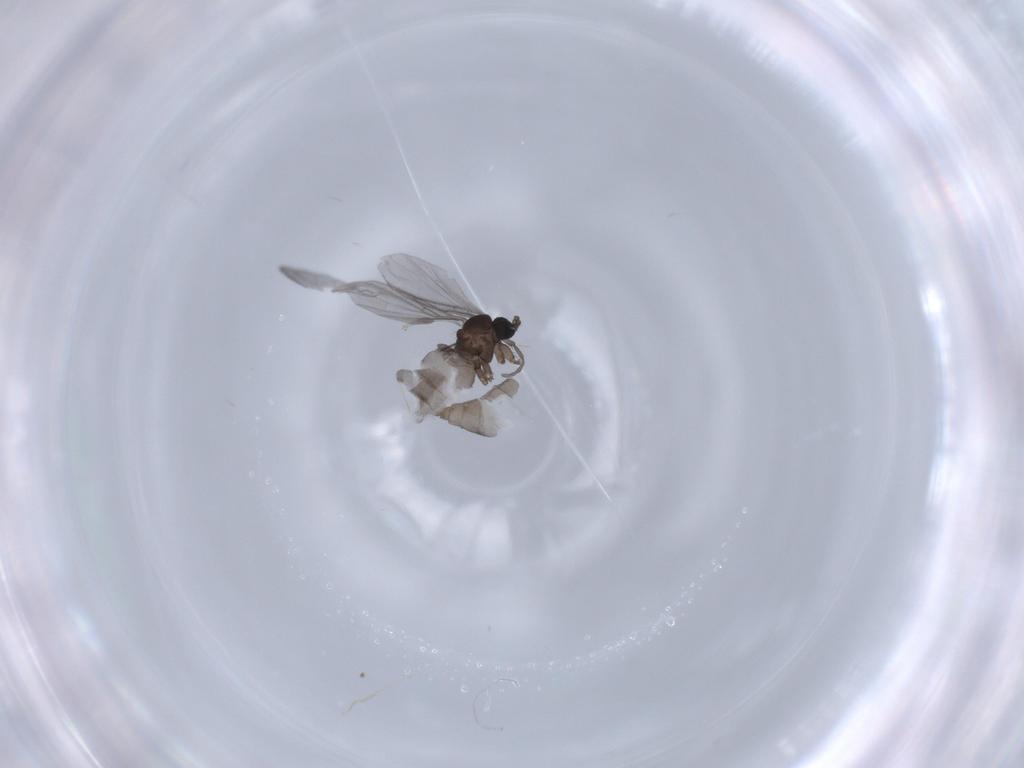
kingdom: Animalia
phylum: Arthropoda
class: Insecta
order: Diptera
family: Sciaridae
